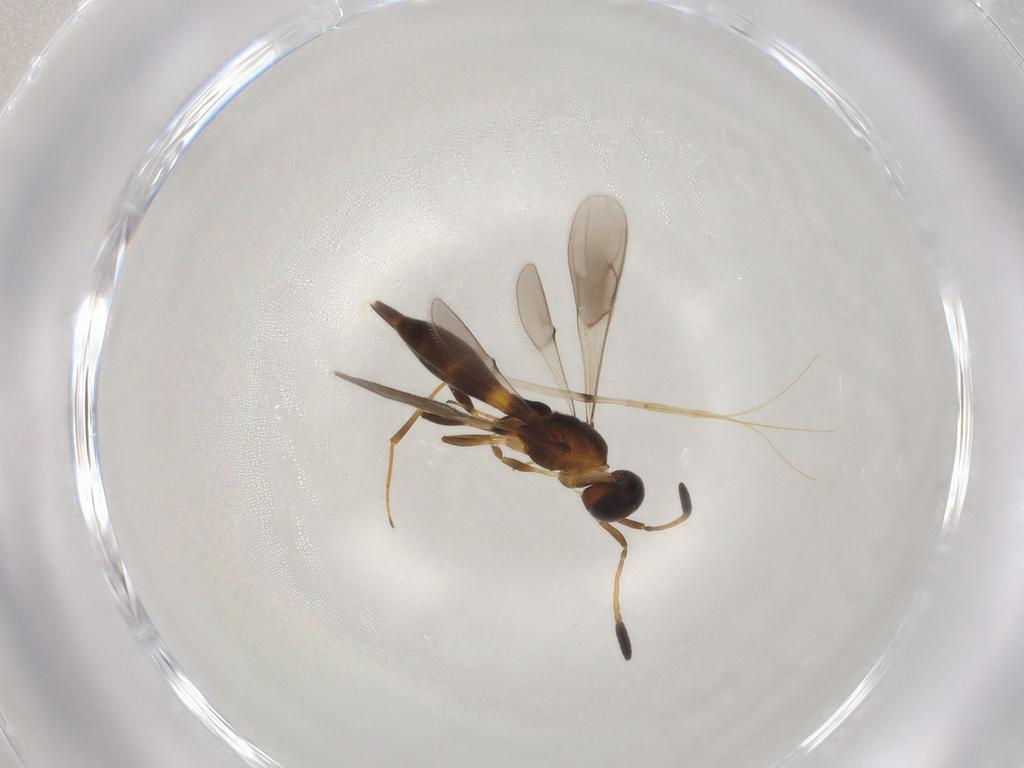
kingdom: Animalia
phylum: Arthropoda
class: Insecta
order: Hymenoptera
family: Scelionidae
